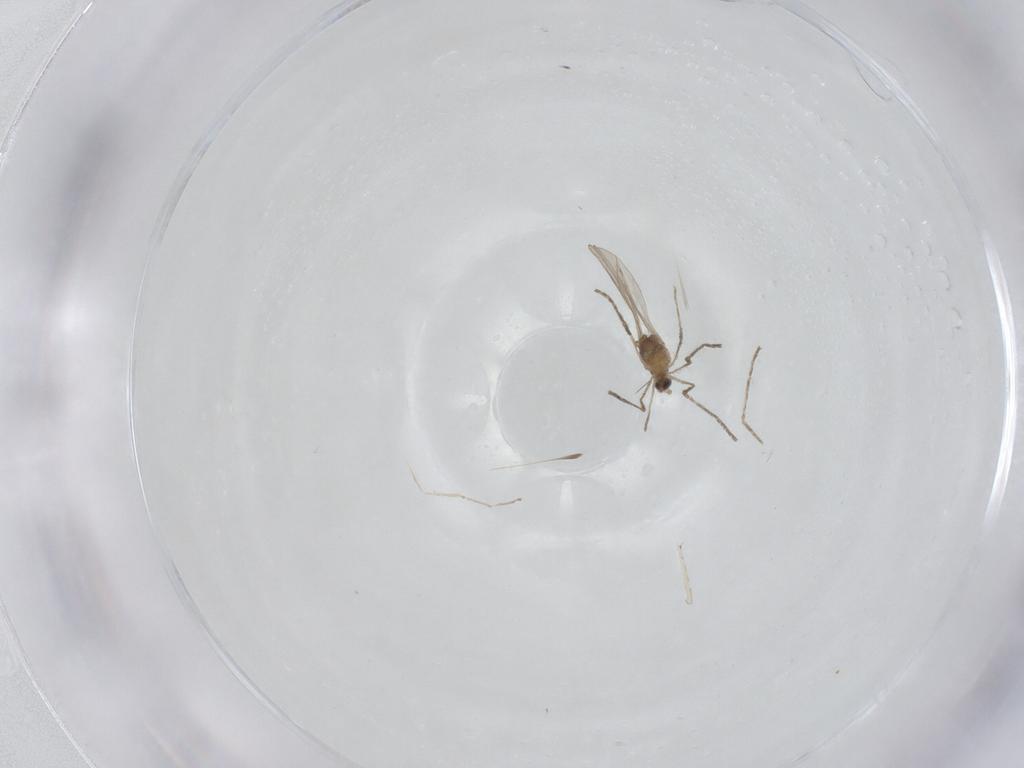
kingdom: Animalia
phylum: Arthropoda
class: Insecta
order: Diptera
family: Cecidomyiidae
